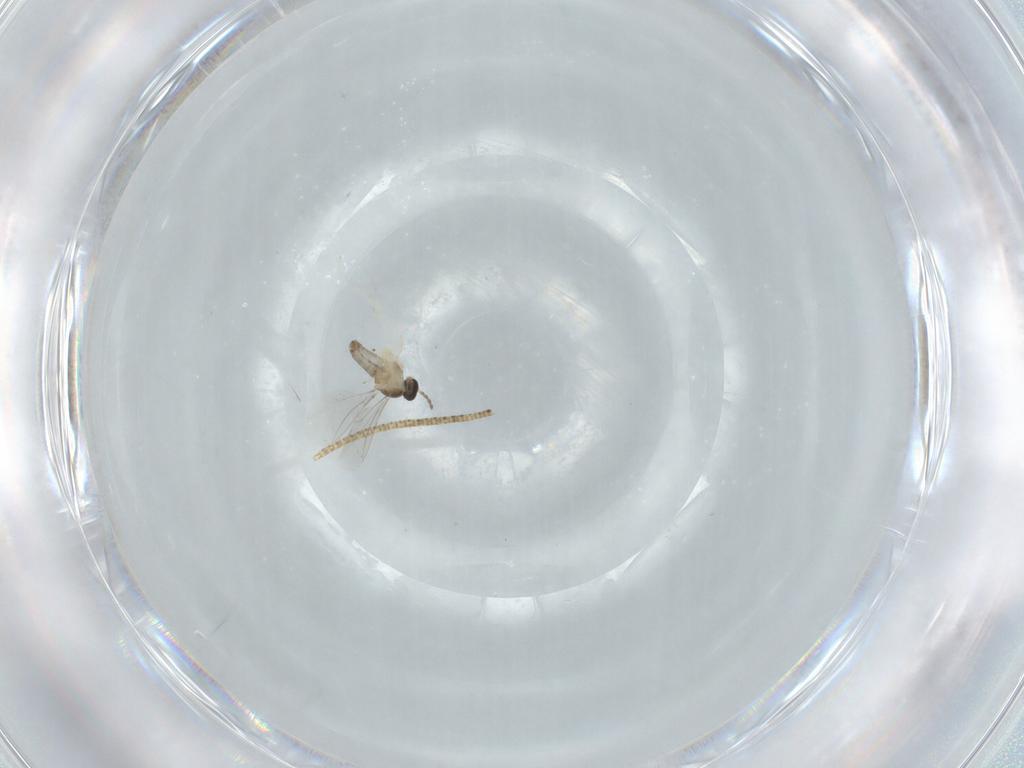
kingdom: Animalia
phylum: Arthropoda
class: Insecta
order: Diptera
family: Cecidomyiidae
